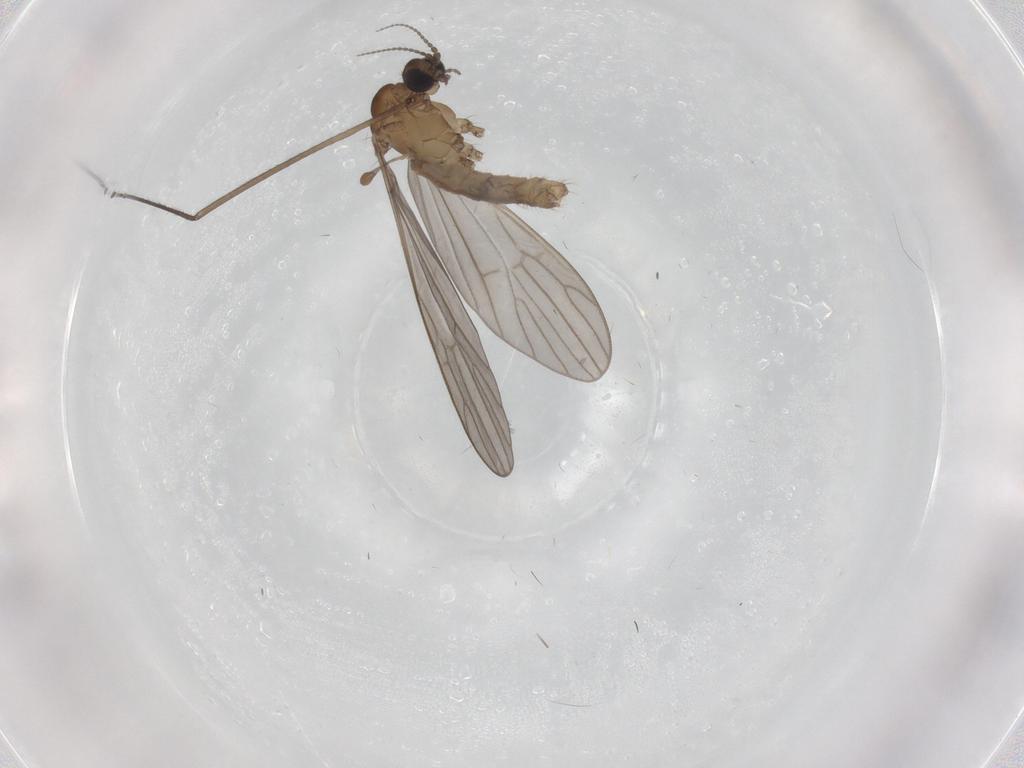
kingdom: Animalia
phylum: Arthropoda
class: Insecta
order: Diptera
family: Limoniidae
